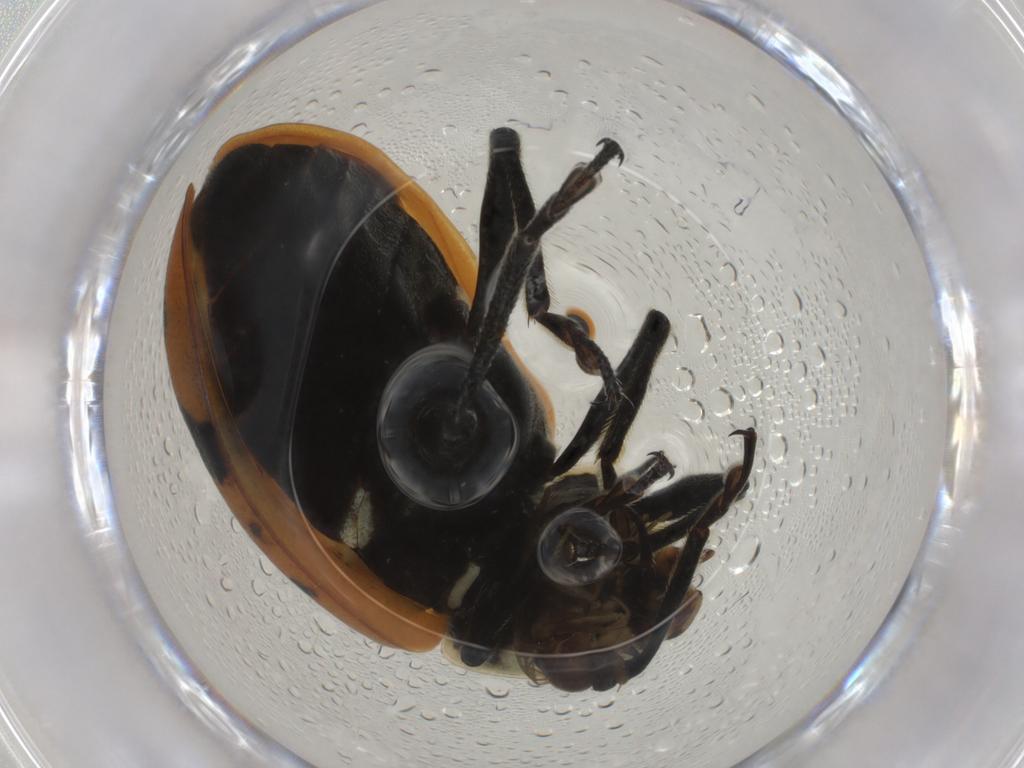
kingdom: Animalia
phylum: Arthropoda
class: Insecta
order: Coleoptera
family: Coccinellidae
